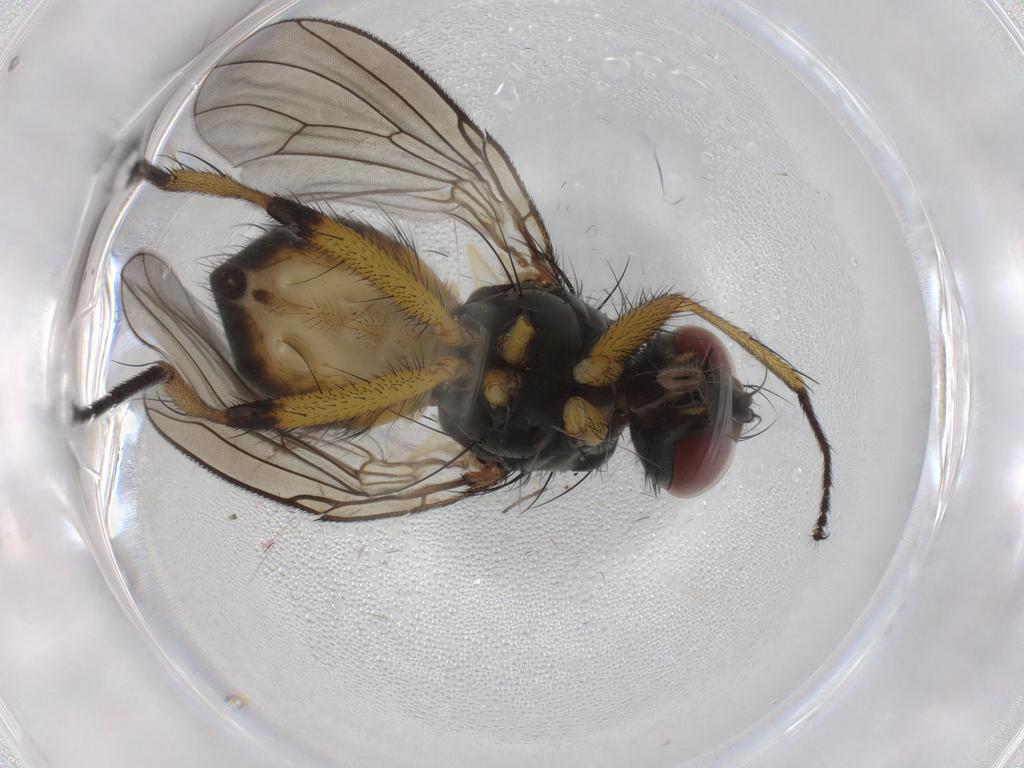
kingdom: Animalia
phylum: Arthropoda
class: Insecta
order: Diptera
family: Muscidae
